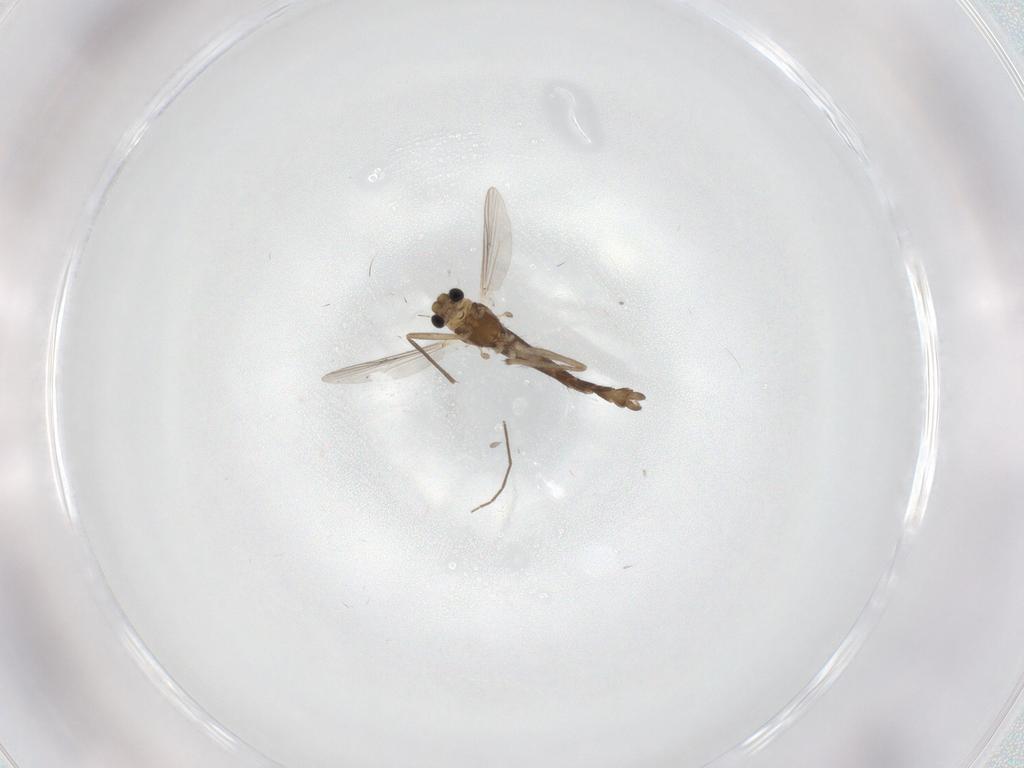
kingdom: Animalia
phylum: Arthropoda
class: Insecta
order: Diptera
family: Chironomidae
